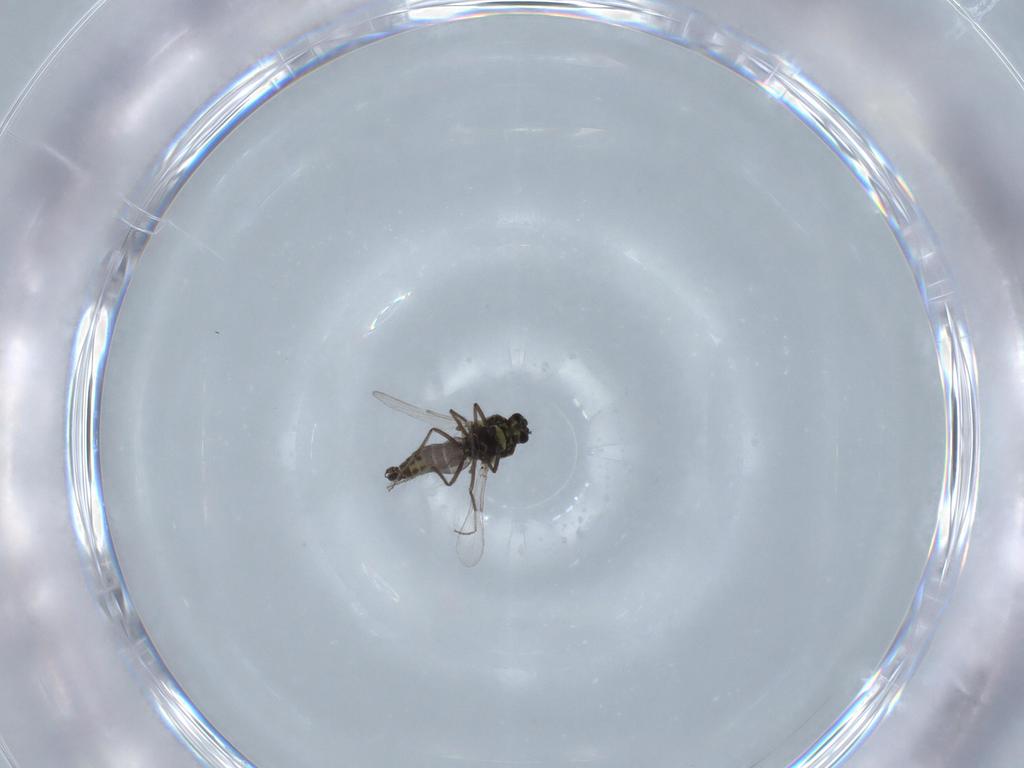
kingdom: Animalia
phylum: Arthropoda
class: Insecta
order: Diptera
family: Ceratopogonidae
